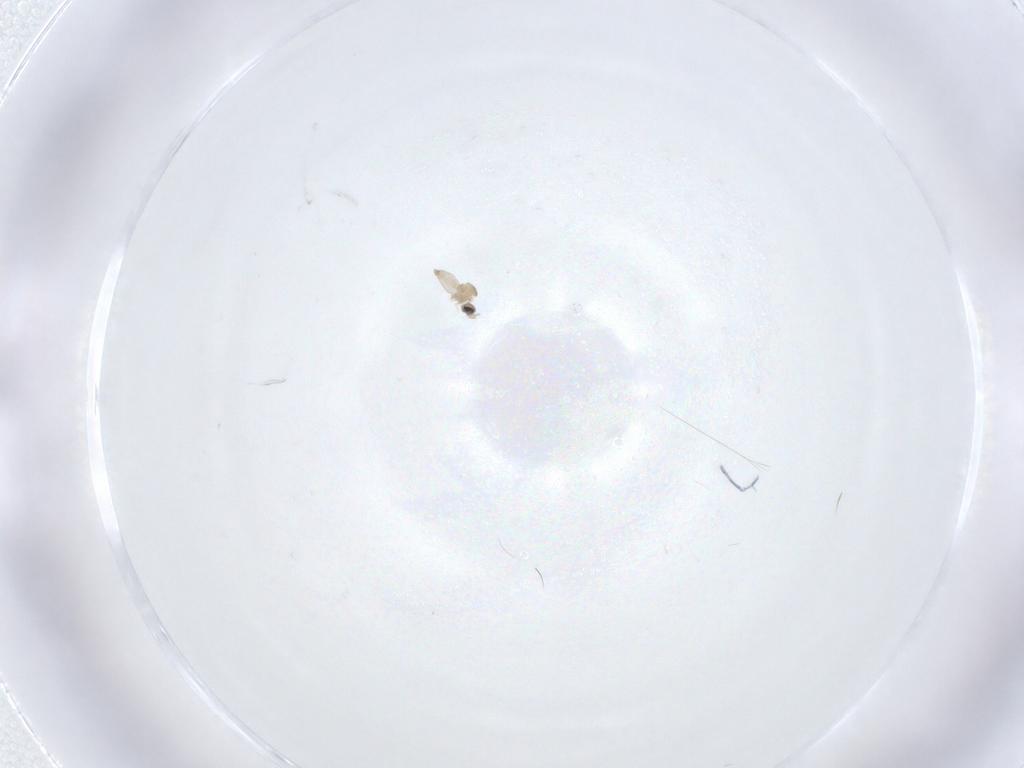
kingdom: Animalia
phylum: Arthropoda
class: Insecta
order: Diptera
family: Cecidomyiidae
